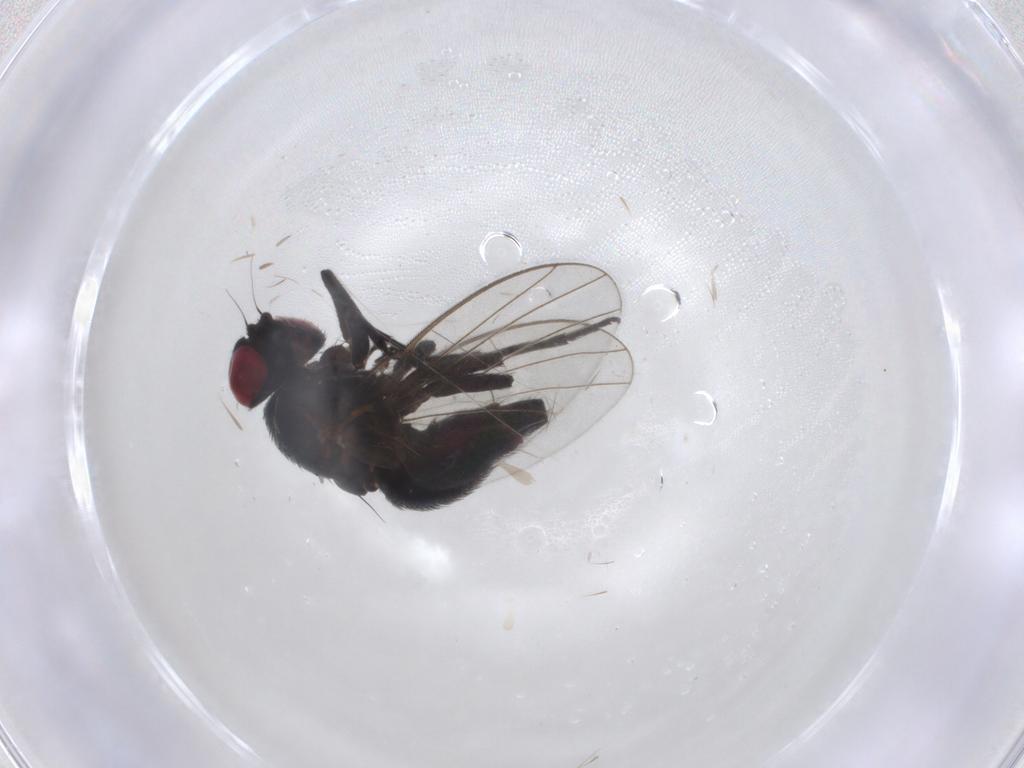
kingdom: Animalia
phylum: Arthropoda
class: Insecta
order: Diptera
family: Agromyzidae
